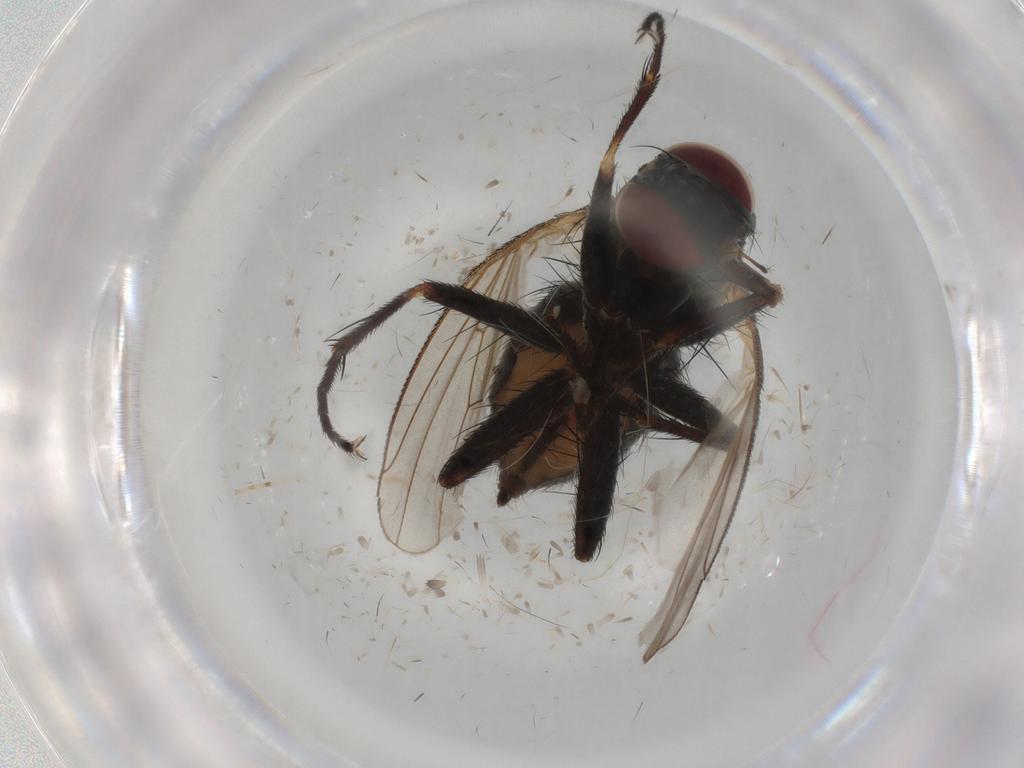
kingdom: Animalia
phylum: Arthropoda
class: Insecta
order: Diptera
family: Muscidae
